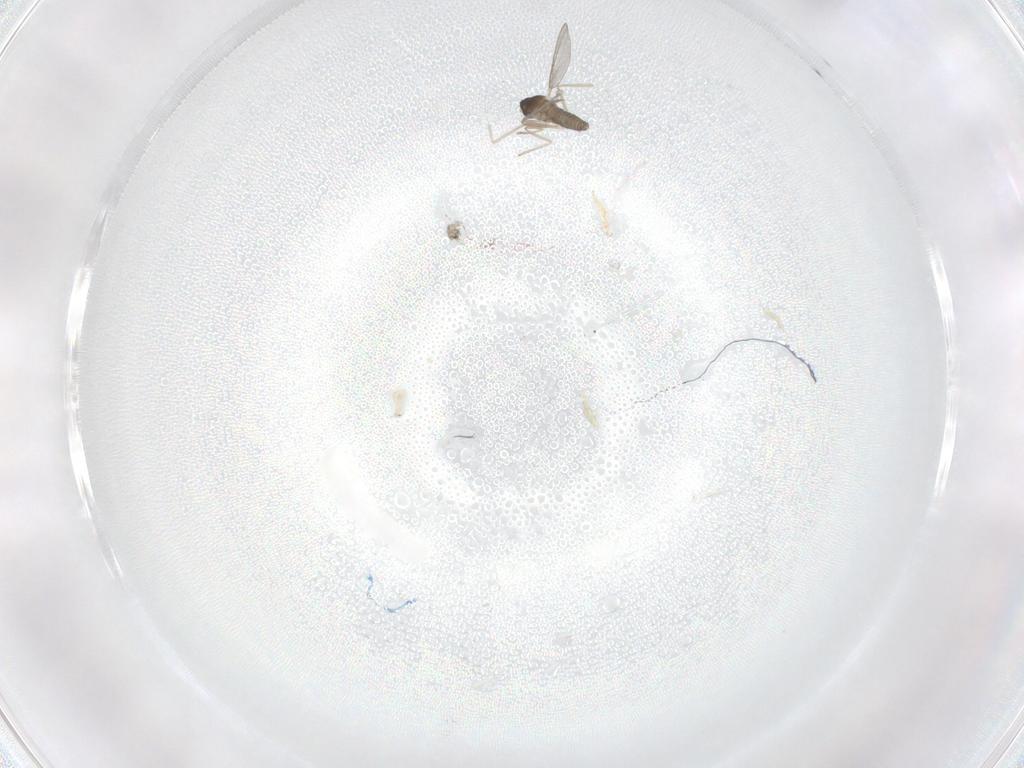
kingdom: Animalia
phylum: Arthropoda
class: Insecta
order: Diptera
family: Cecidomyiidae
